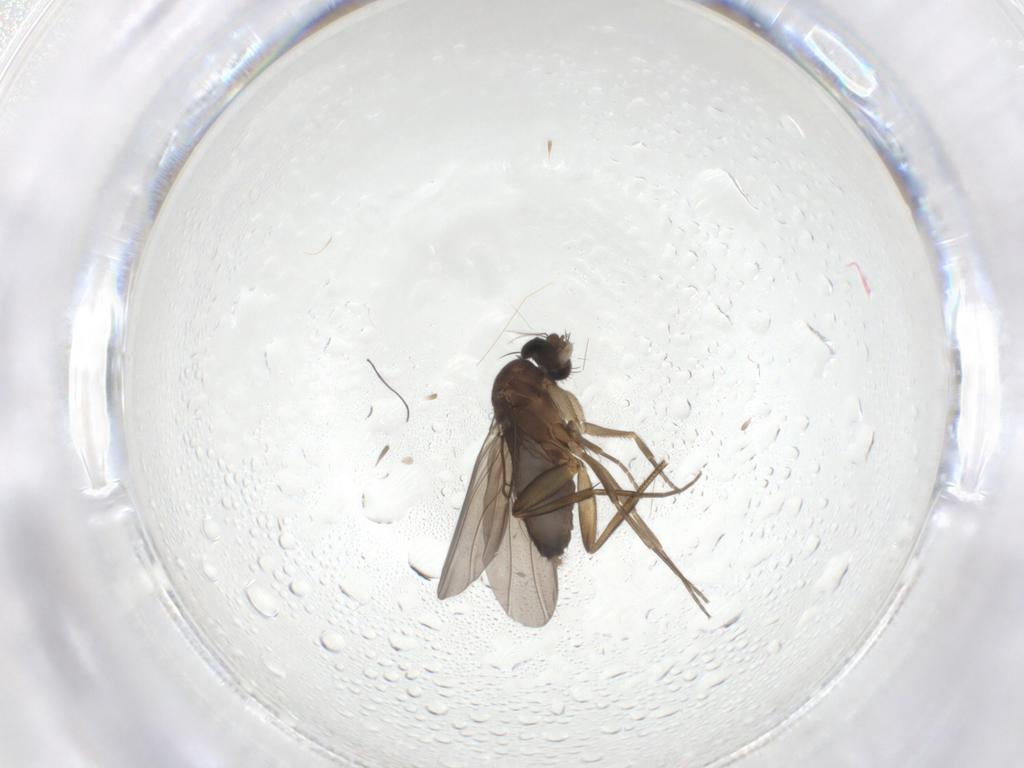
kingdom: Animalia
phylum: Arthropoda
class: Insecta
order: Diptera
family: Phoridae
